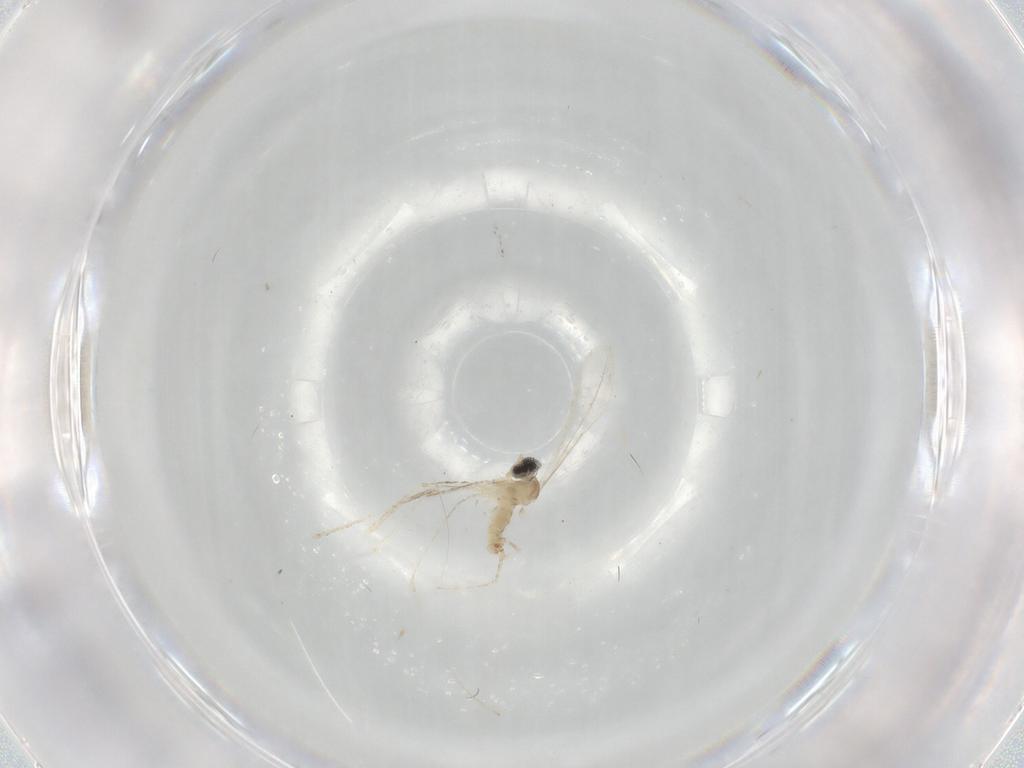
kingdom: Animalia
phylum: Arthropoda
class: Insecta
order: Diptera
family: Cecidomyiidae
